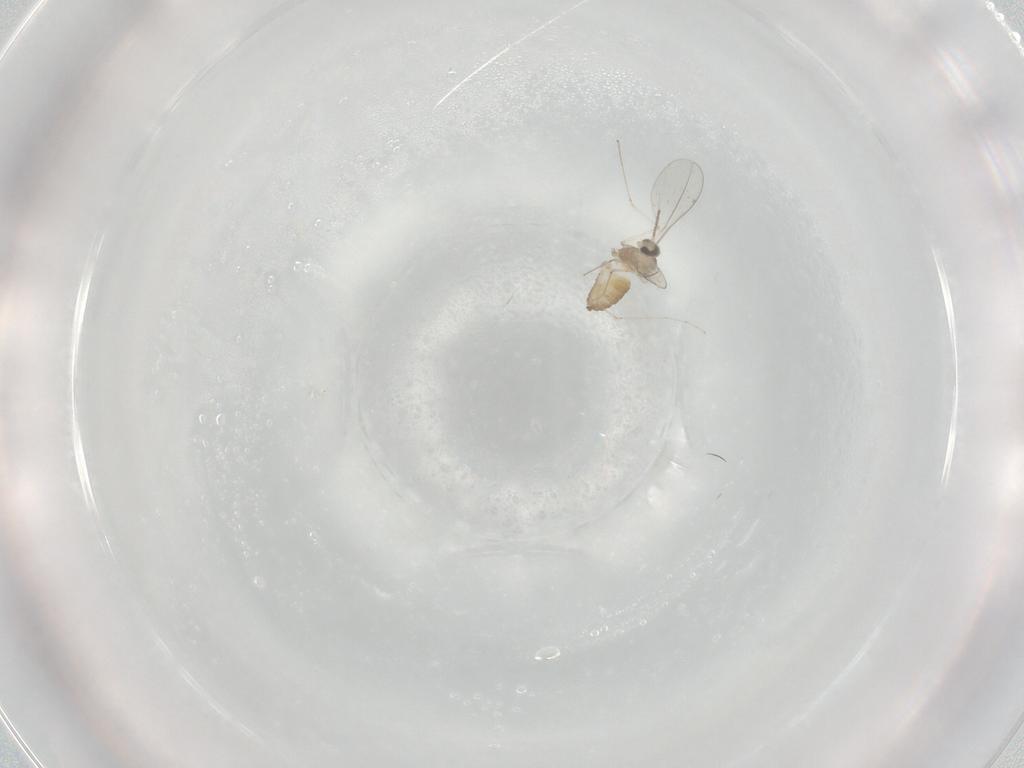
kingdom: Animalia
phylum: Arthropoda
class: Insecta
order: Diptera
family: Cecidomyiidae
